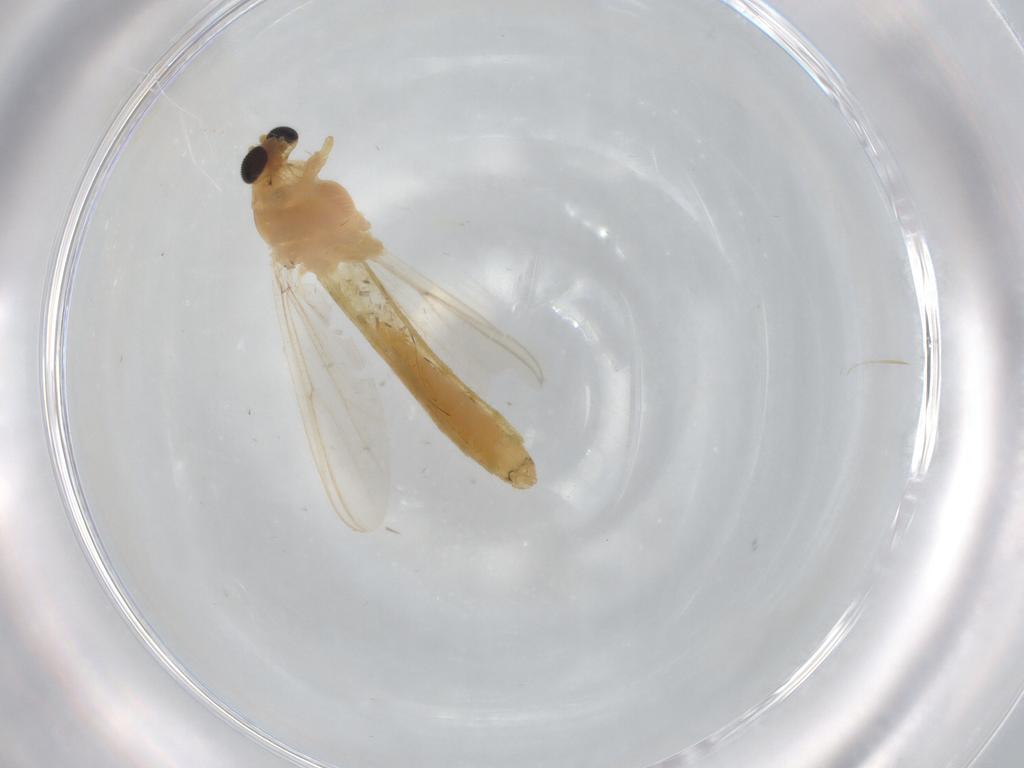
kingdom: Animalia
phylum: Arthropoda
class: Insecta
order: Diptera
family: Chironomidae
